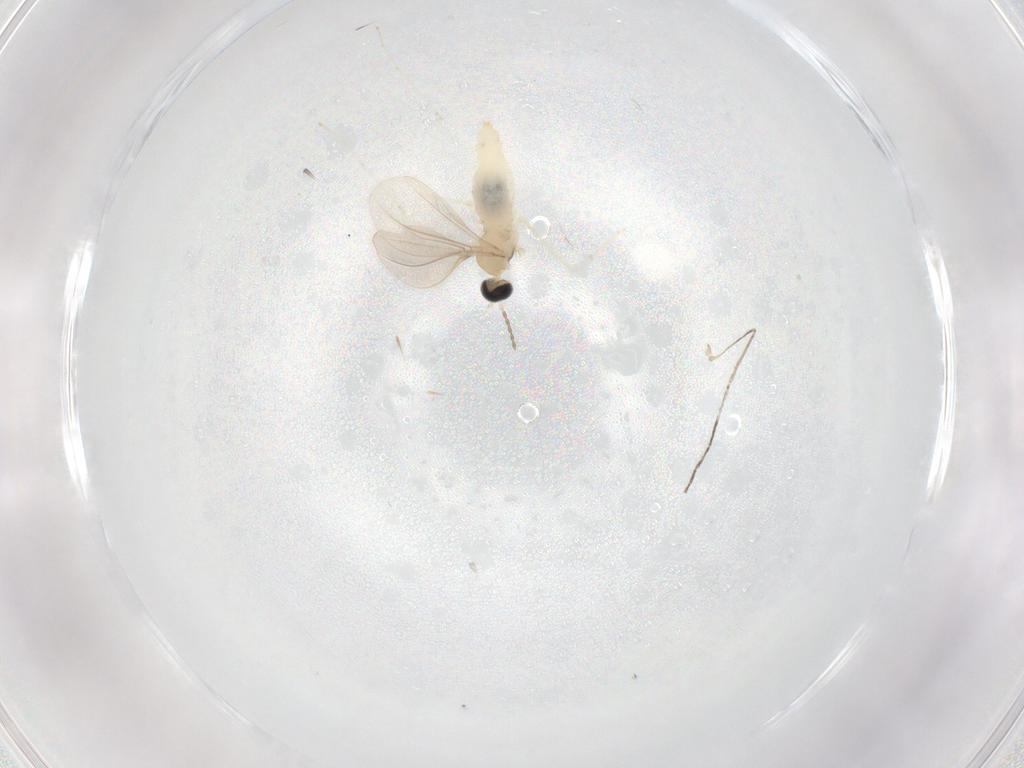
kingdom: Animalia
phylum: Arthropoda
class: Insecta
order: Diptera
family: Cecidomyiidae
